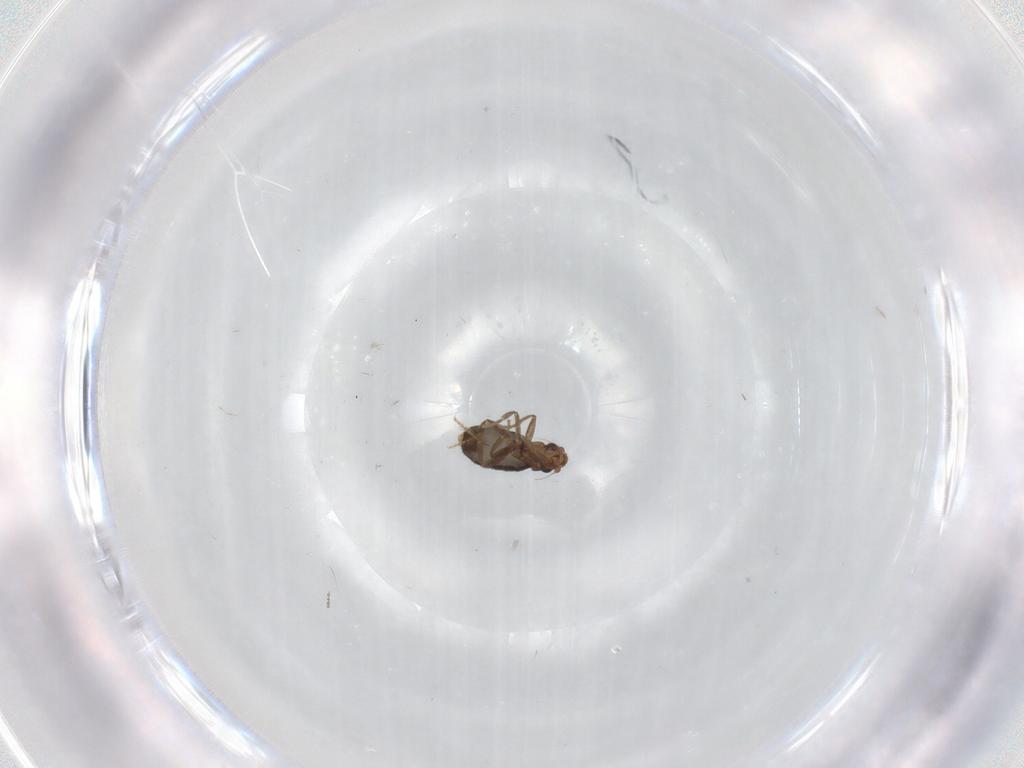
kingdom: Animalia
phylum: Arthropoda
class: Insecta
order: Diptera
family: Phoridae
